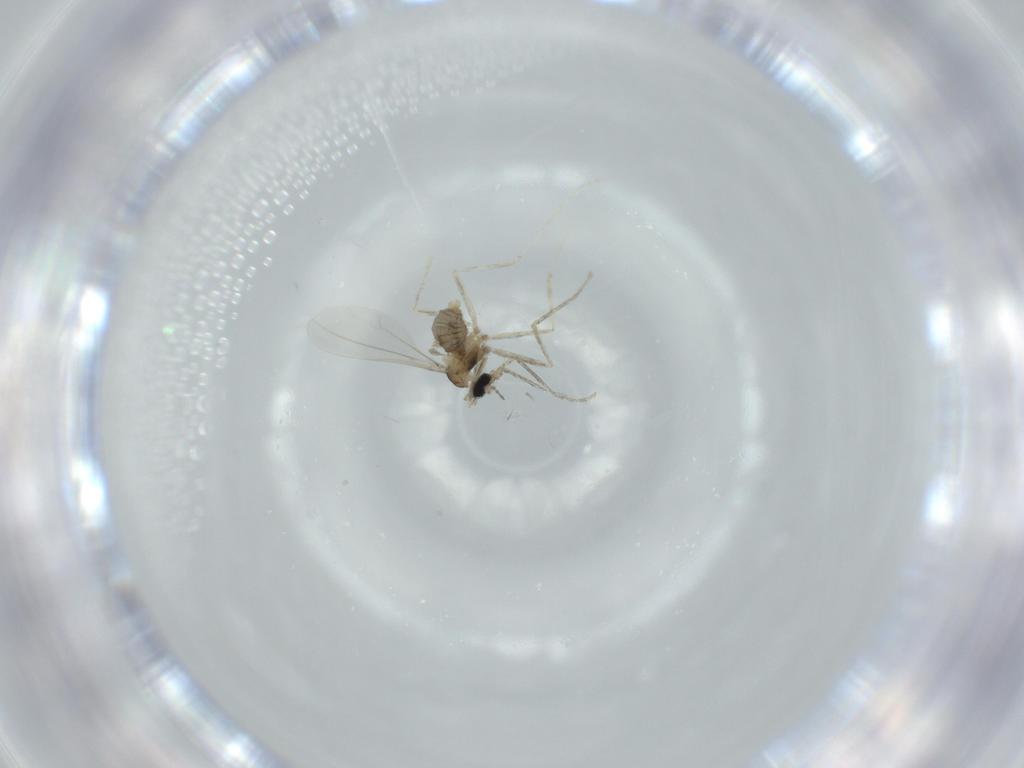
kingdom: Animalia
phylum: Arthropoda
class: Insecta
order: Diptera
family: Cecidomyiidae
